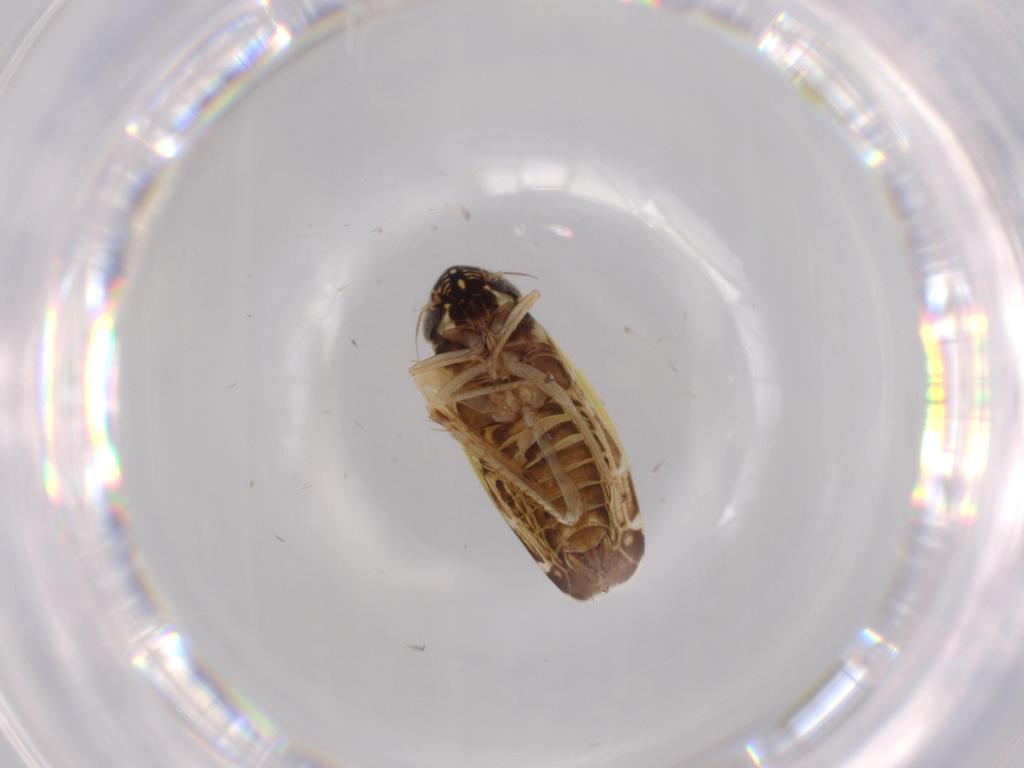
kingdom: Animalia
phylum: Arthropoda
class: Insecta
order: Hemiptera
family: Cicadellidae
